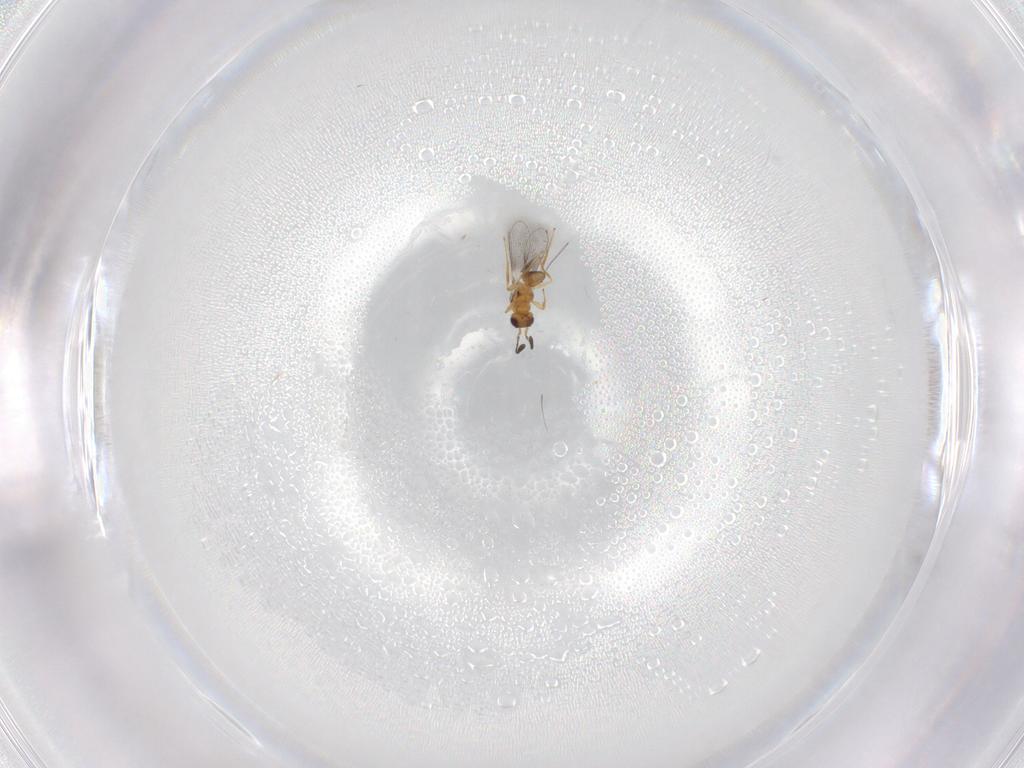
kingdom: Animalia
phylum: Arthropoda
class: Insecta
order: Hymenoptera
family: Mymaridae
